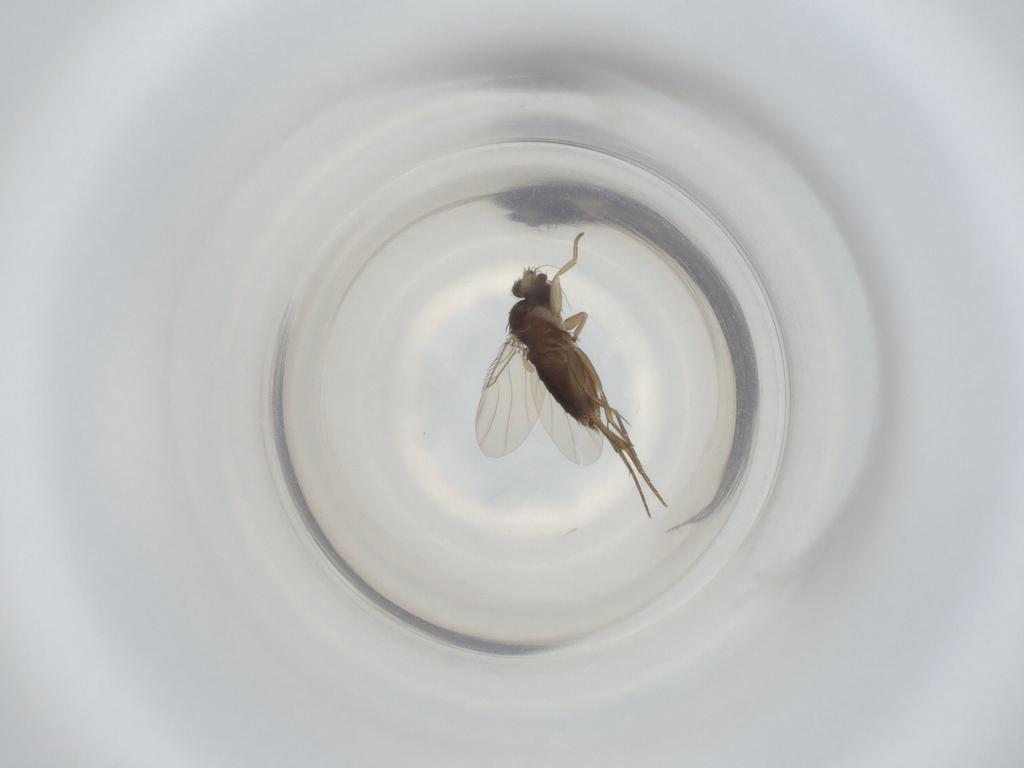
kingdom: Animalia
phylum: Arthropoda
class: Insecta
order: Diptera
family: Phoridae
